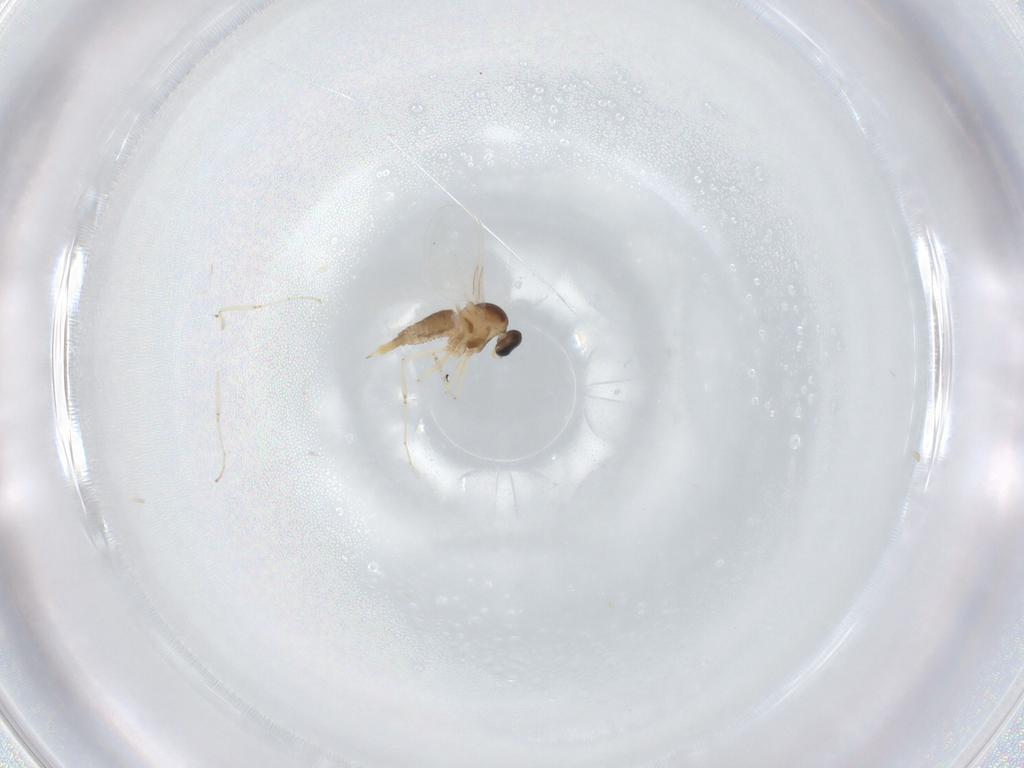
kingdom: Animalia
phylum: Arthropoda
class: Insecta
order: Diptera
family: Cecidomyiidae
